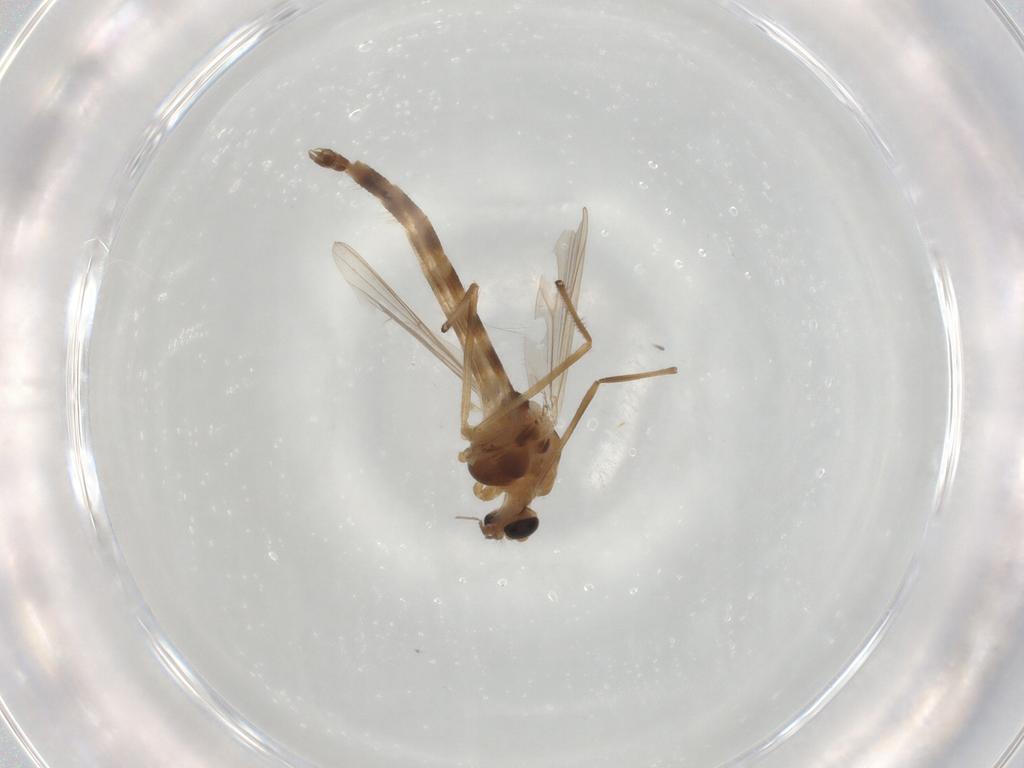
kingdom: Animalia
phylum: Arthropoda
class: Insecta
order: Diptera
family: Chironomidae
